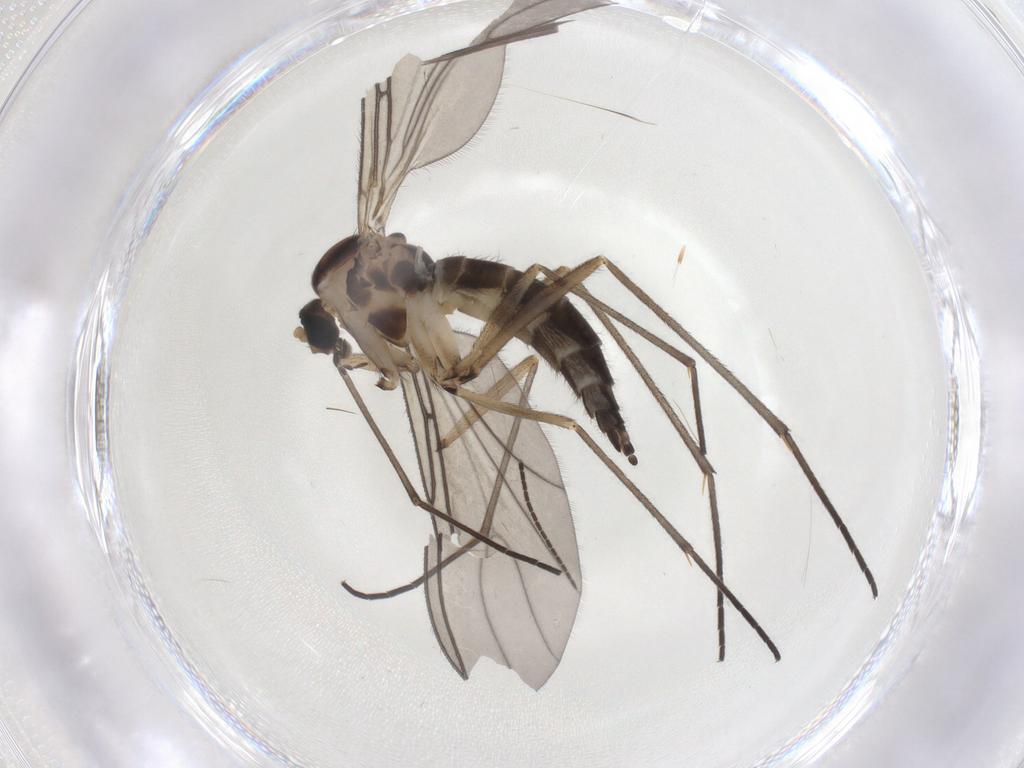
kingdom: Animalia
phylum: Arthropoda
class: Insecta
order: Diptera
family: Sciaridae
